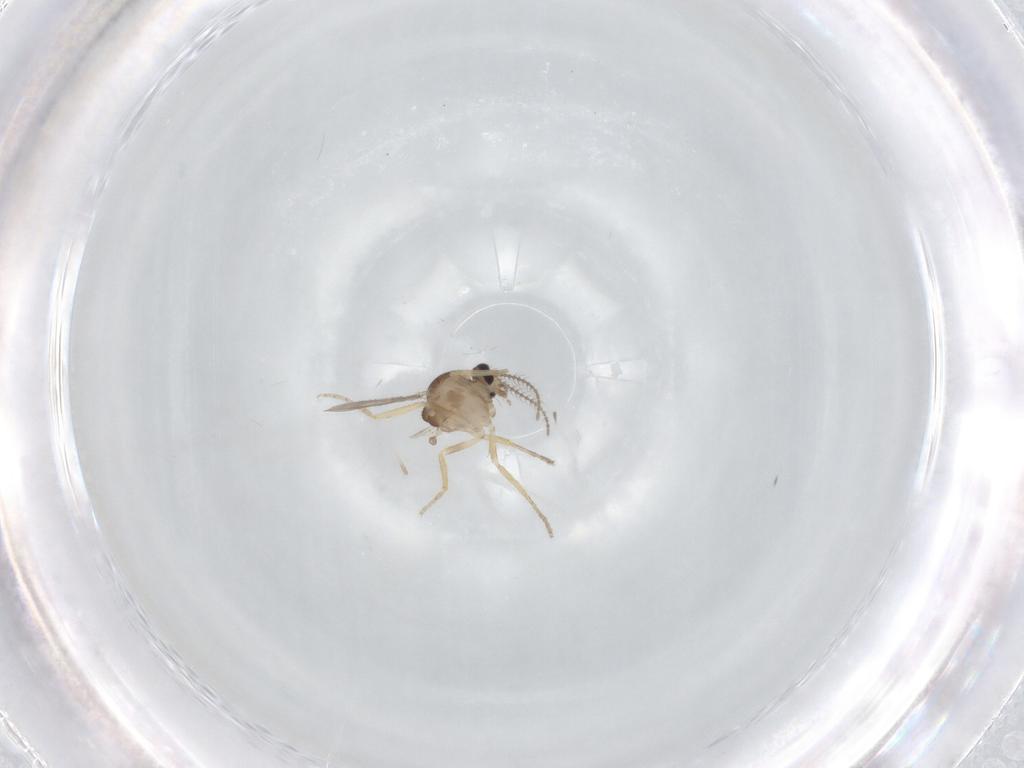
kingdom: Animalia
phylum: Arthropoda
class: Insecta
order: Diptera
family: Ceratopogonidae
